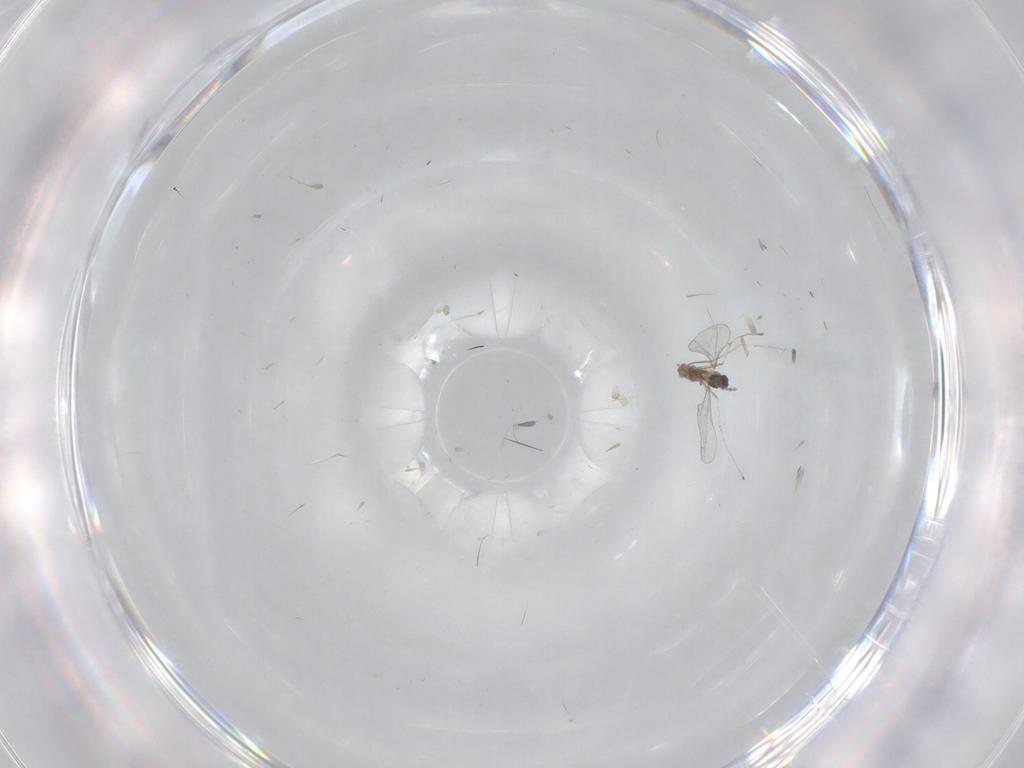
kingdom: Animalia
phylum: Arthropoda
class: Insecta
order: Diptera
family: Cecidomyiidae
